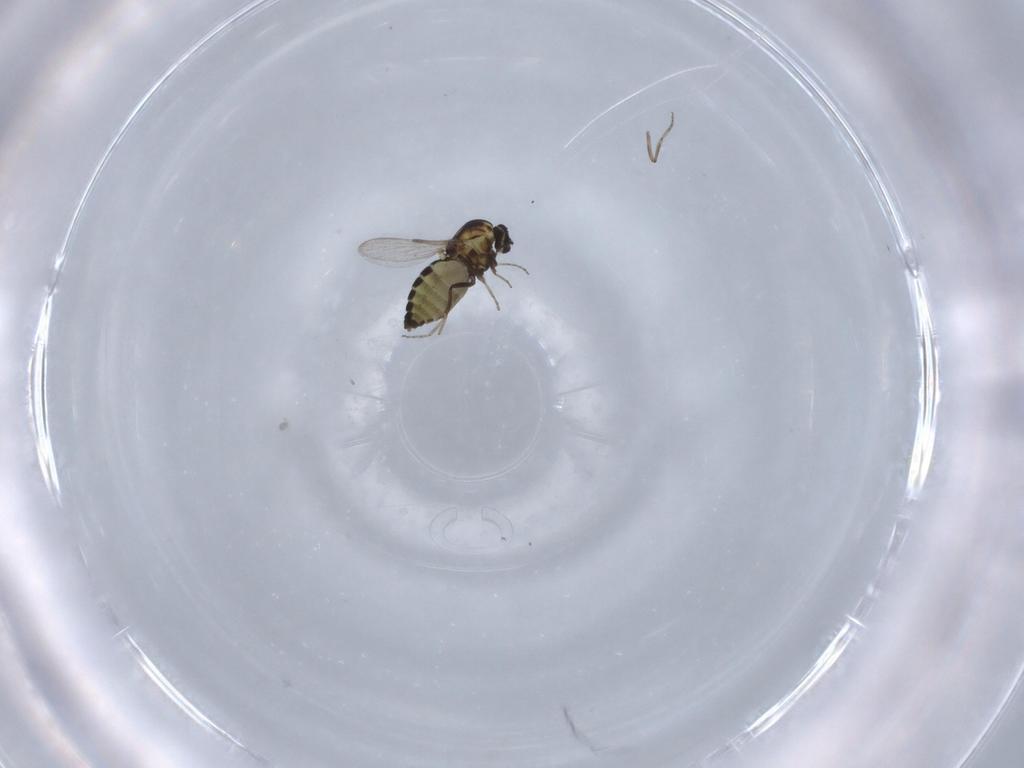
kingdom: Animalia
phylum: Arthropoda
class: Insecta
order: Diptera
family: Ceratopogonidae
